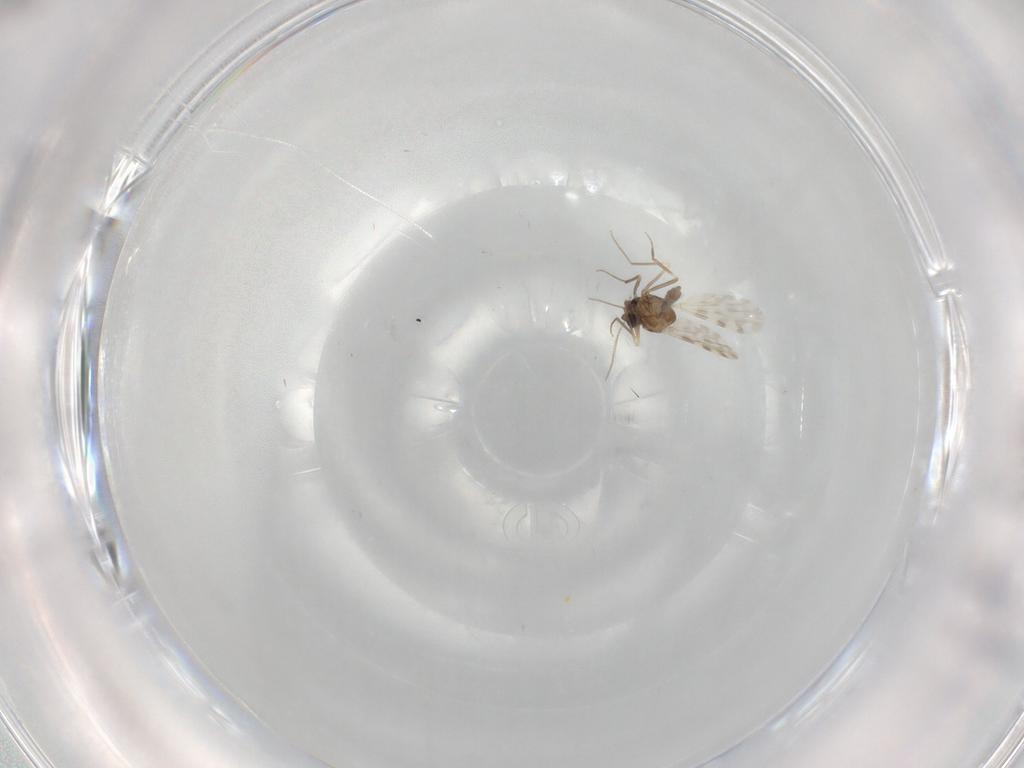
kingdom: Animalia
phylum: Arthropoda
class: Insecta
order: Diptera
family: Ceratopogonidae
